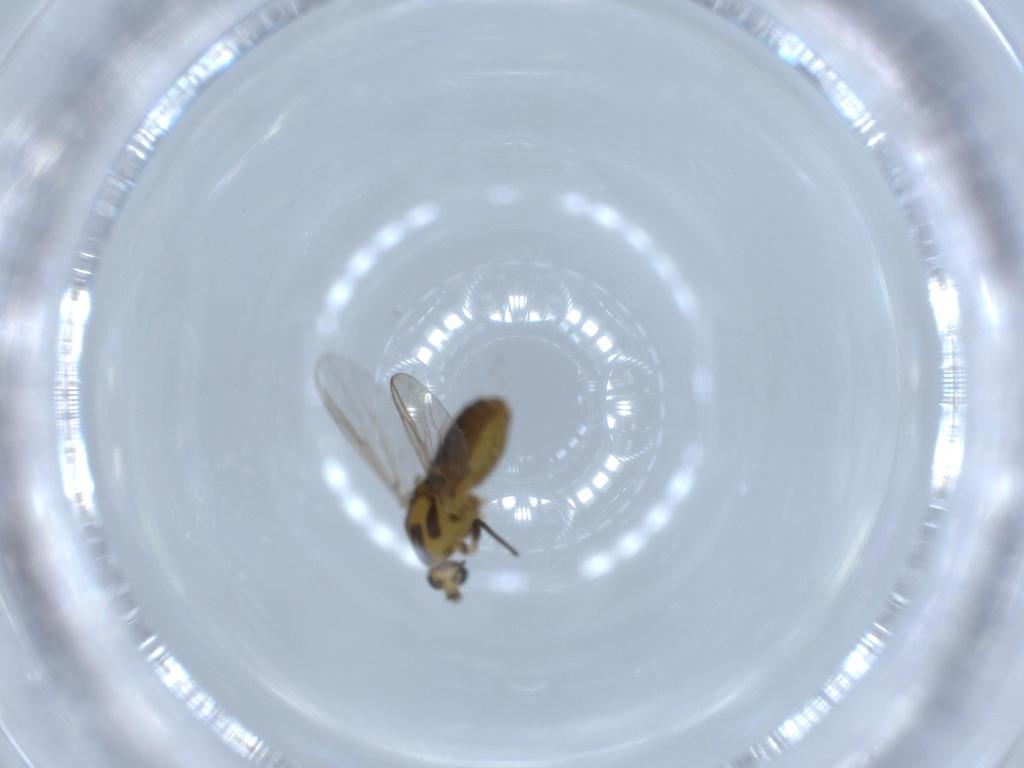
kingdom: Animalia
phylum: Arthropoda
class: Insecta
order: Diptera
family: Chironomidae
